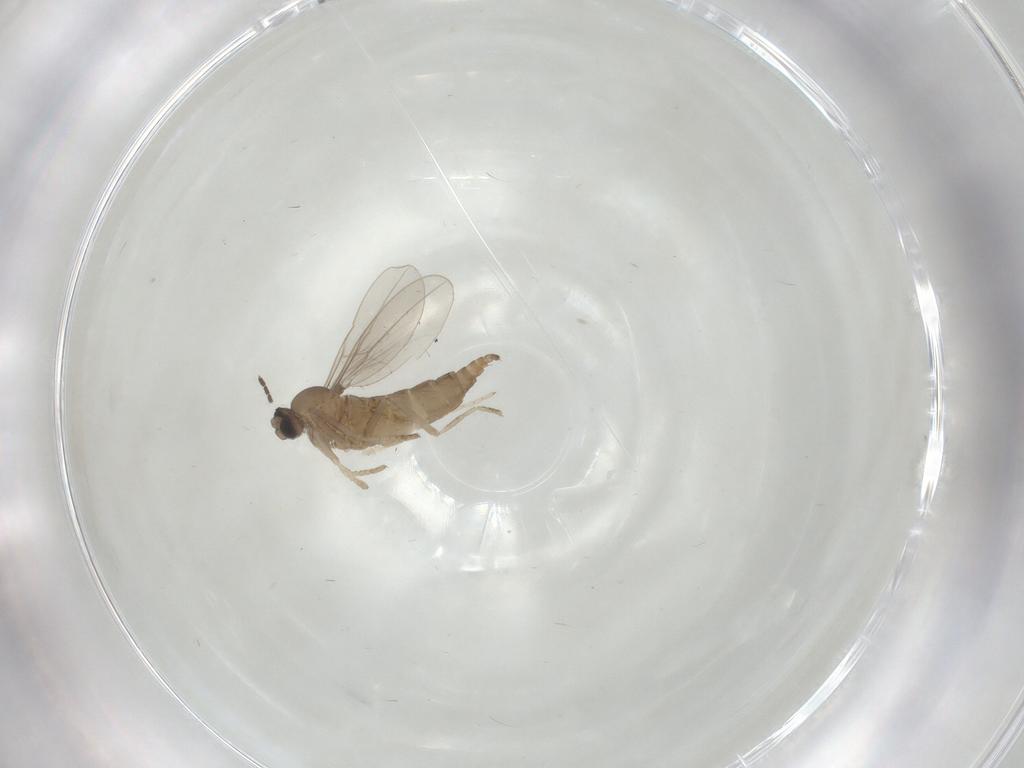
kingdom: Animalia
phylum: Arthropoda
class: Insecta
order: Diptera
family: Cecidomyiidae
